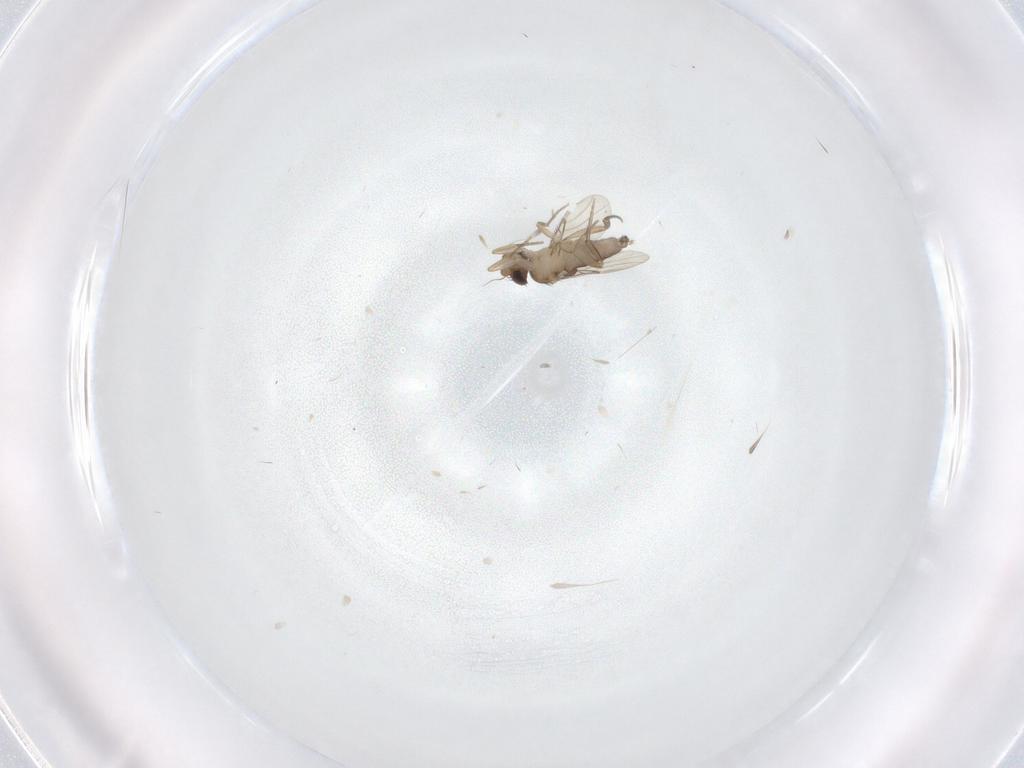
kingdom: Animalia
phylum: Arthropoda
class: Insecta
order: Diptera
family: Phoridae
